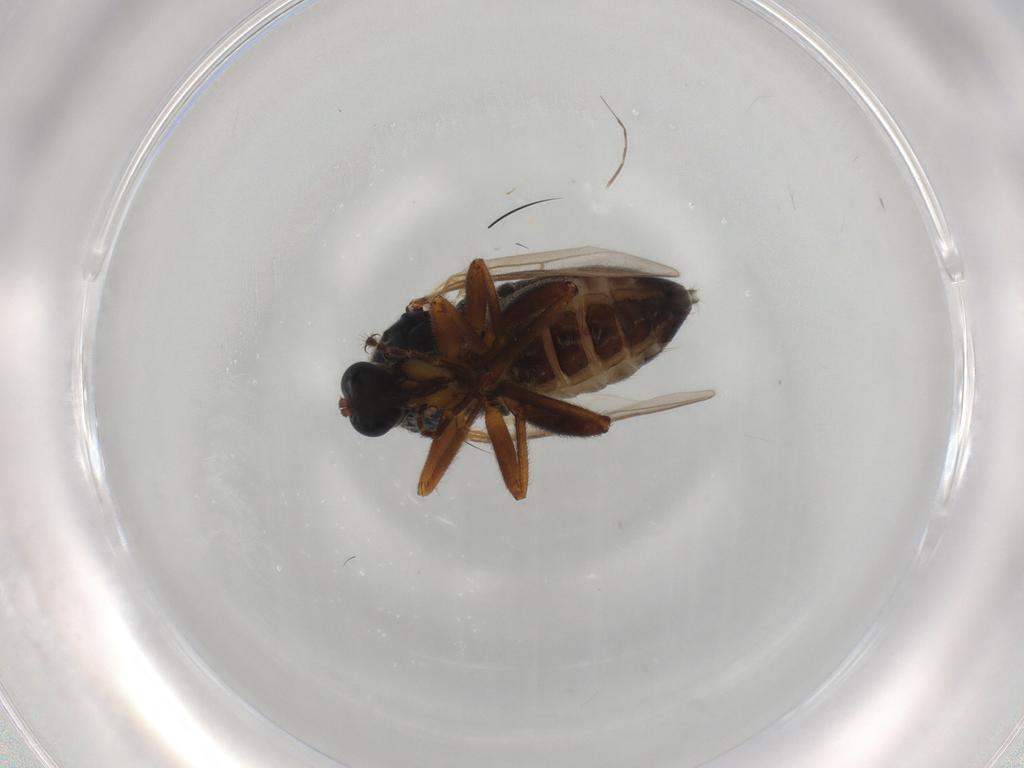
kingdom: Animalia
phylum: Arthropoda
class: Insecta
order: Diptera
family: Hybotidae
